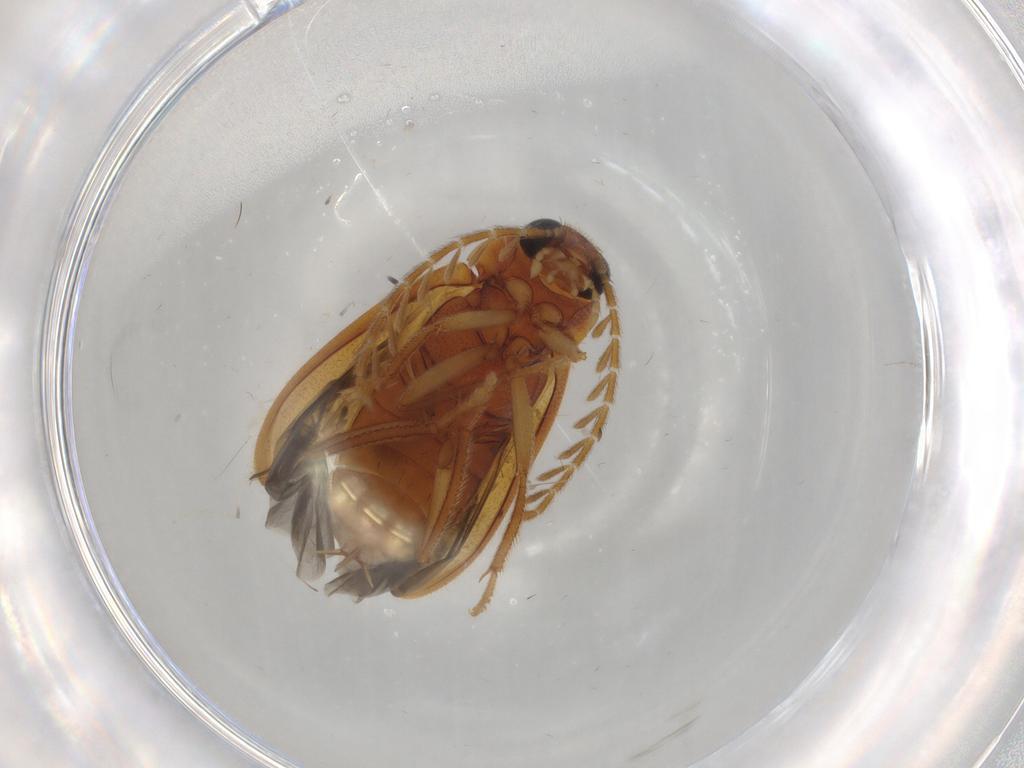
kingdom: Animalia
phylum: Arthropoda
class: Insecta
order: Coleoptera
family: Ptilodactylidae
